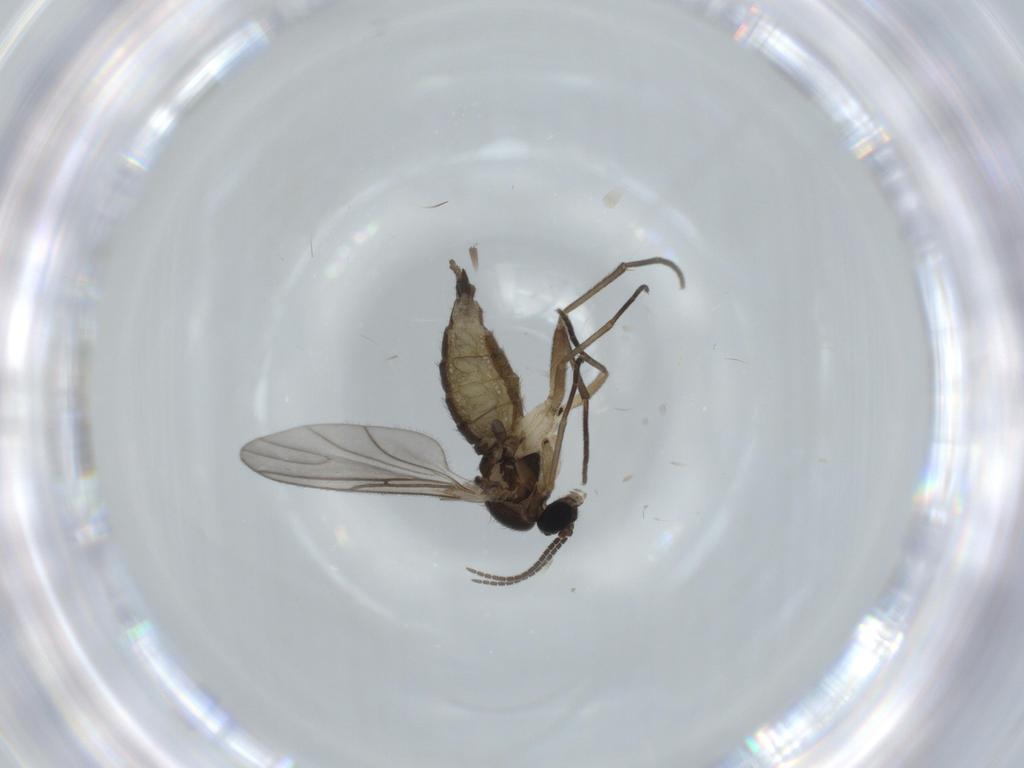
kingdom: Animalia
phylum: Arthropoda
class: Insecta
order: Diptera
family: Sciaridae
